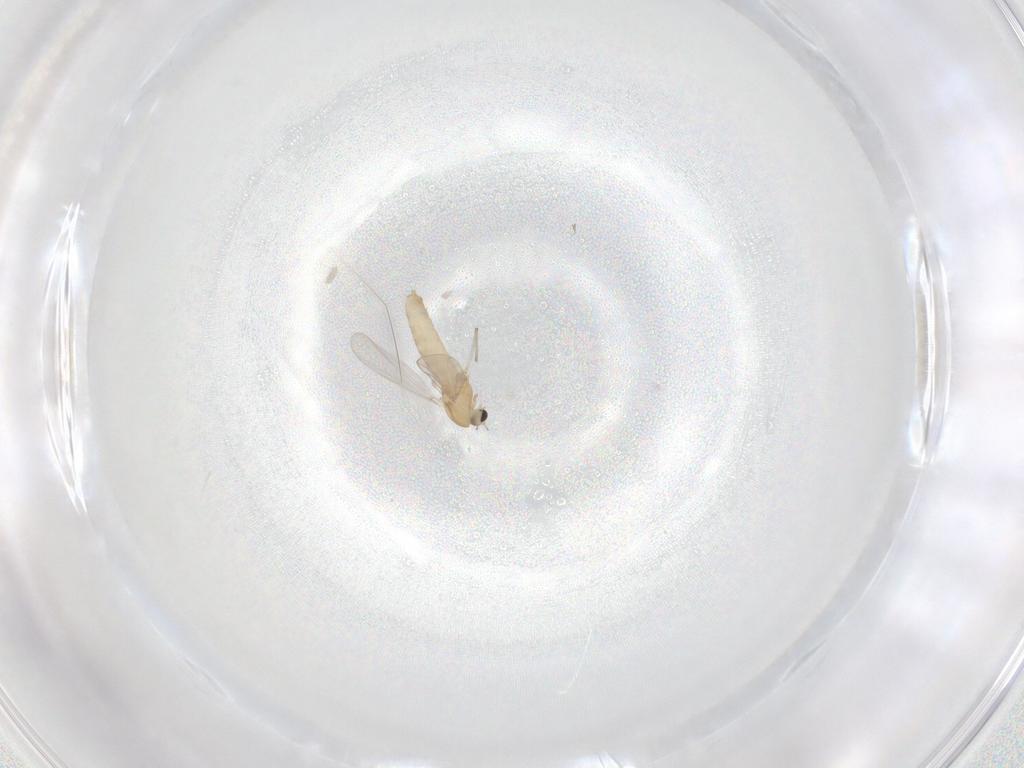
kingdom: Animalia
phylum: Arthropoda
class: Insecta
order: Diptera
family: Chironomidae
